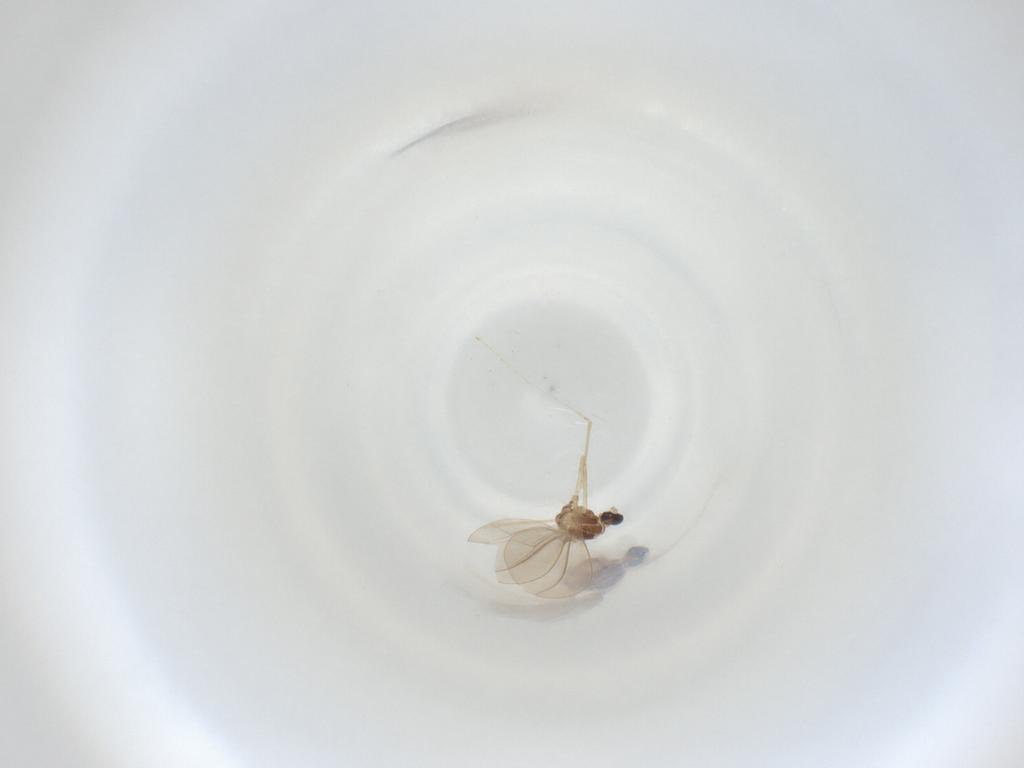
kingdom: Animalia
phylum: Arthropoda
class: Insecta
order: Diptera
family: Cecidomyiidae
